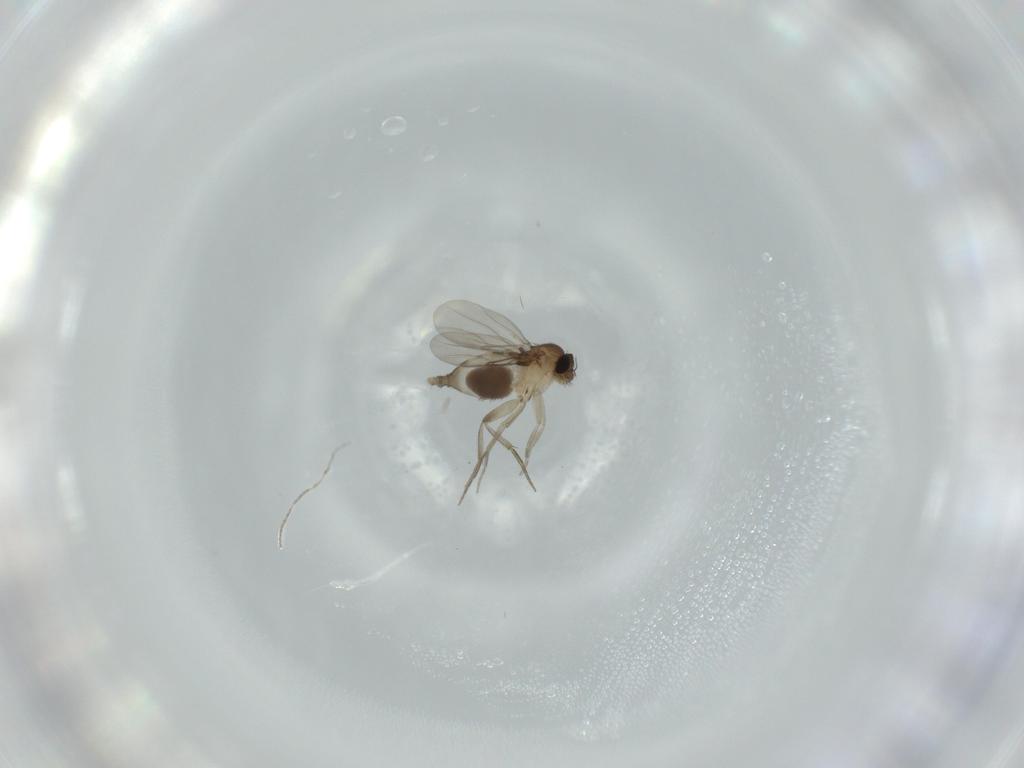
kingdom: Animalia
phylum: Arthropoda
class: Insecta
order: Diptera
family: Phoridae
